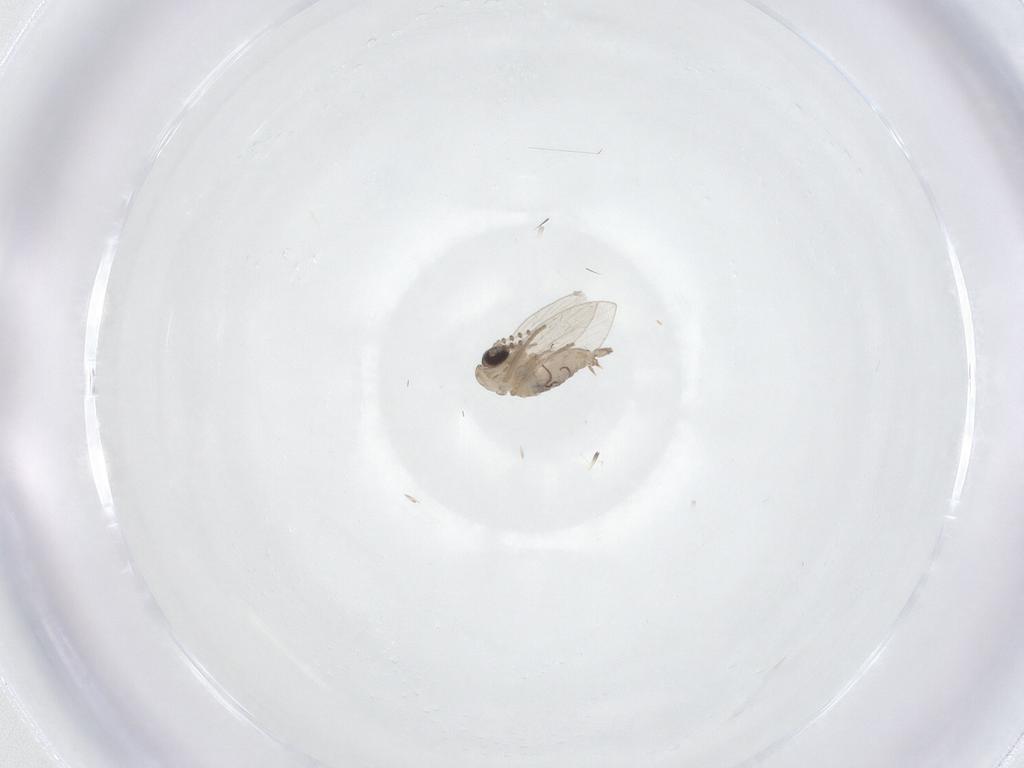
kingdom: Animalia
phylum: Arthropoda
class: Insecta
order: Diptera
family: Psychodidae
